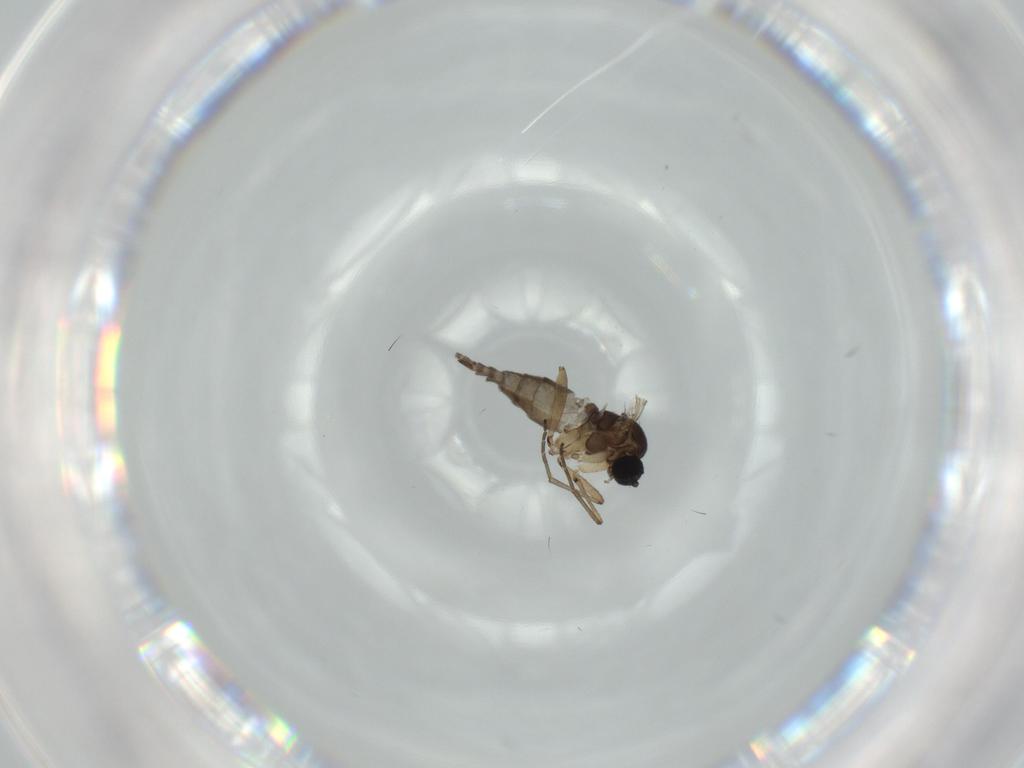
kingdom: Animalia
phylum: Arthropoda
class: Insecta
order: Diptera
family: Sciaridae
